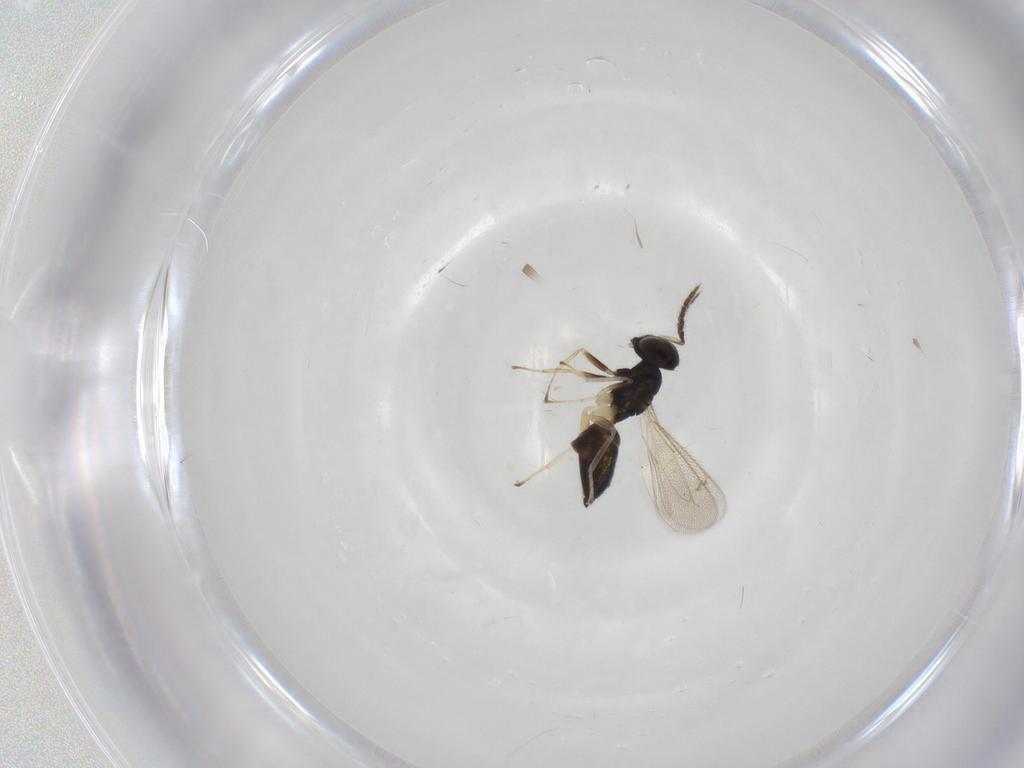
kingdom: Animalia
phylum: Arthropoda
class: Insecta
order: Hymenoptera
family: Eulophidae
